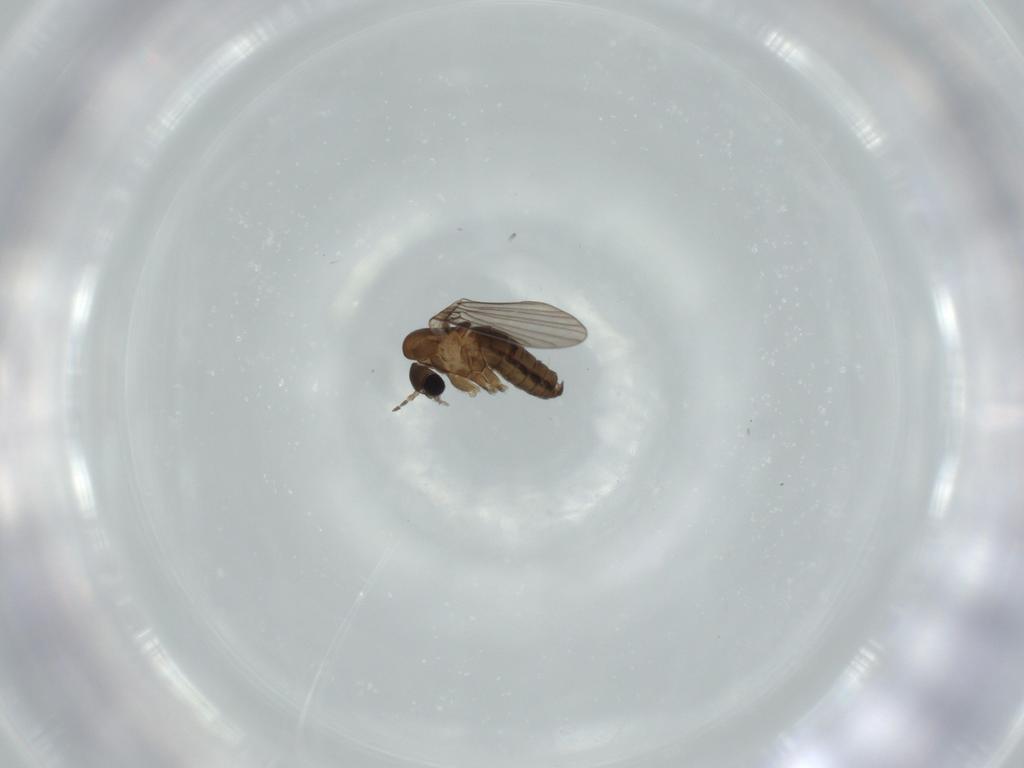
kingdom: Animalia
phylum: Arthropoda
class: Insecta
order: Diptera
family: Psychodidae
